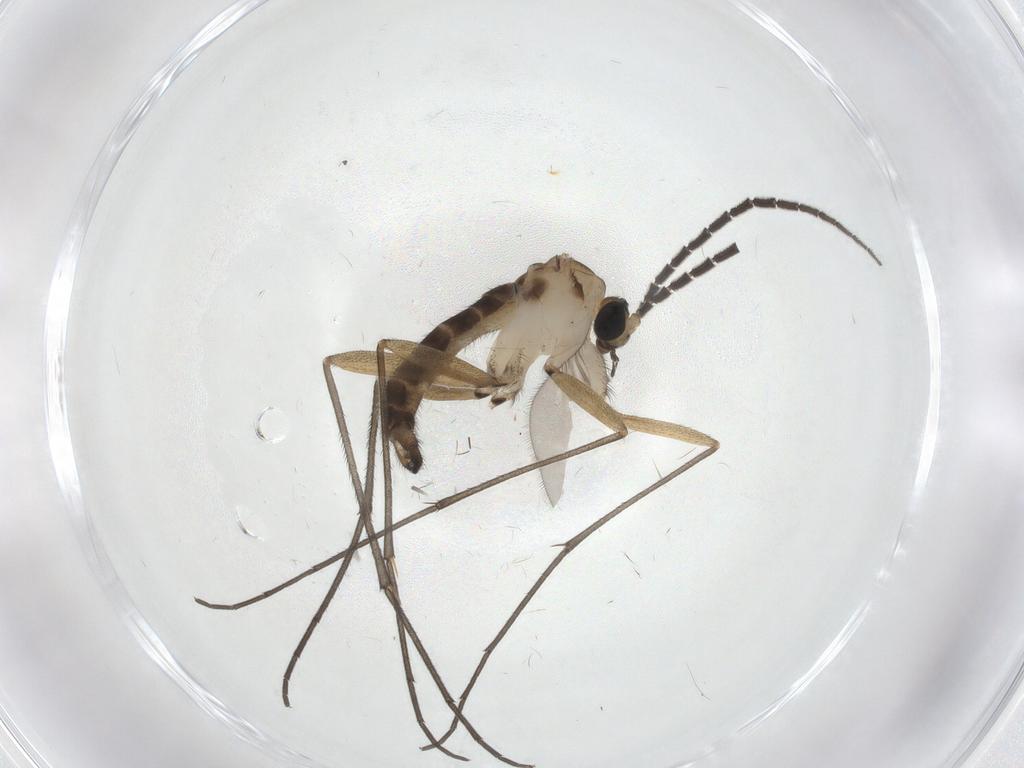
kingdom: Animalia
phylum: Arthropoda
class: Insecta
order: Diptera
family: Sciaridae
